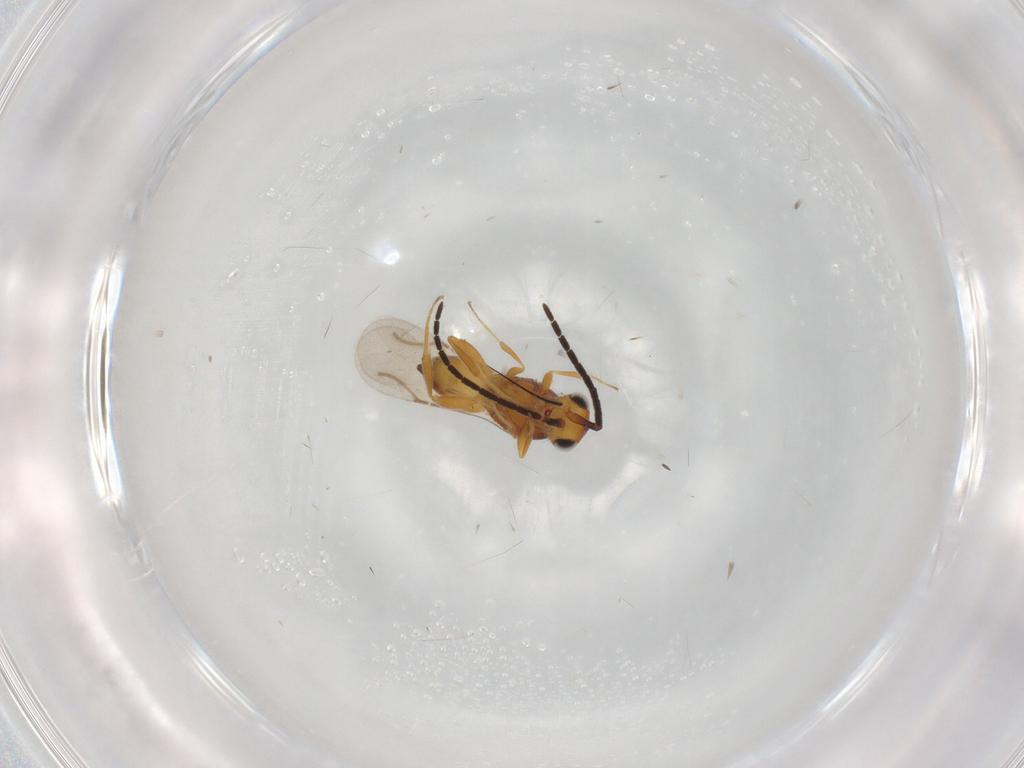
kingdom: Animalia
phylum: Arthropoda
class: Insecta
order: Hymenoptera
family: Ceraphronidae
